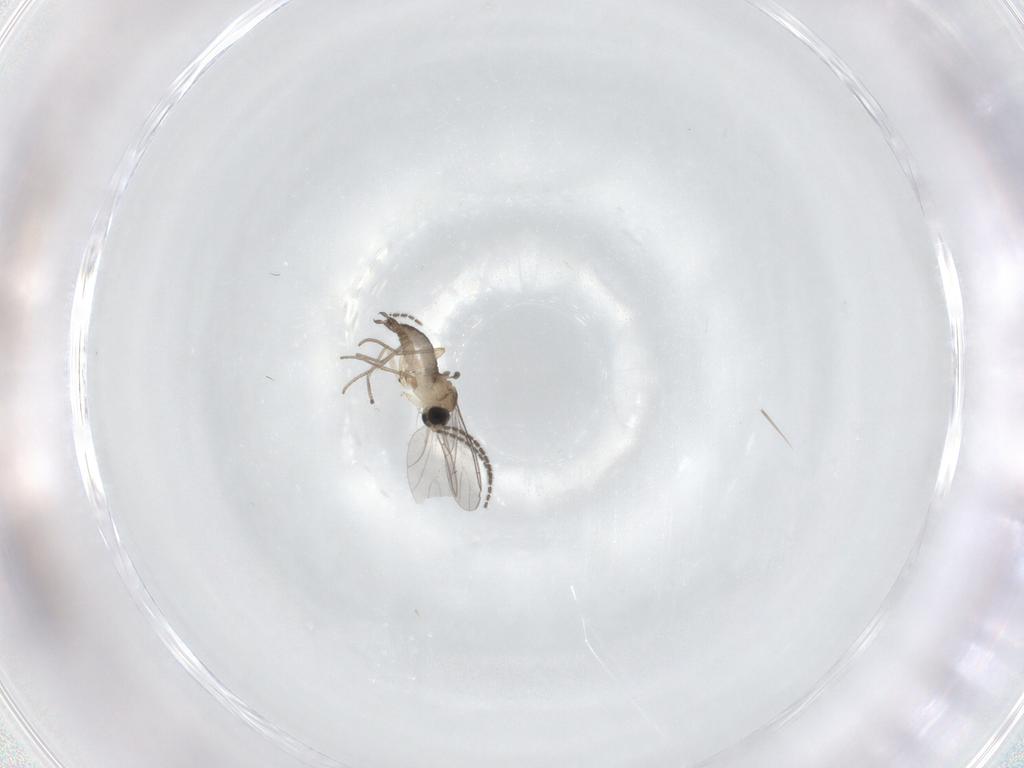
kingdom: Animalia
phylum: Arthropoda
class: Insecta
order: Diptera
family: Sciaridae
